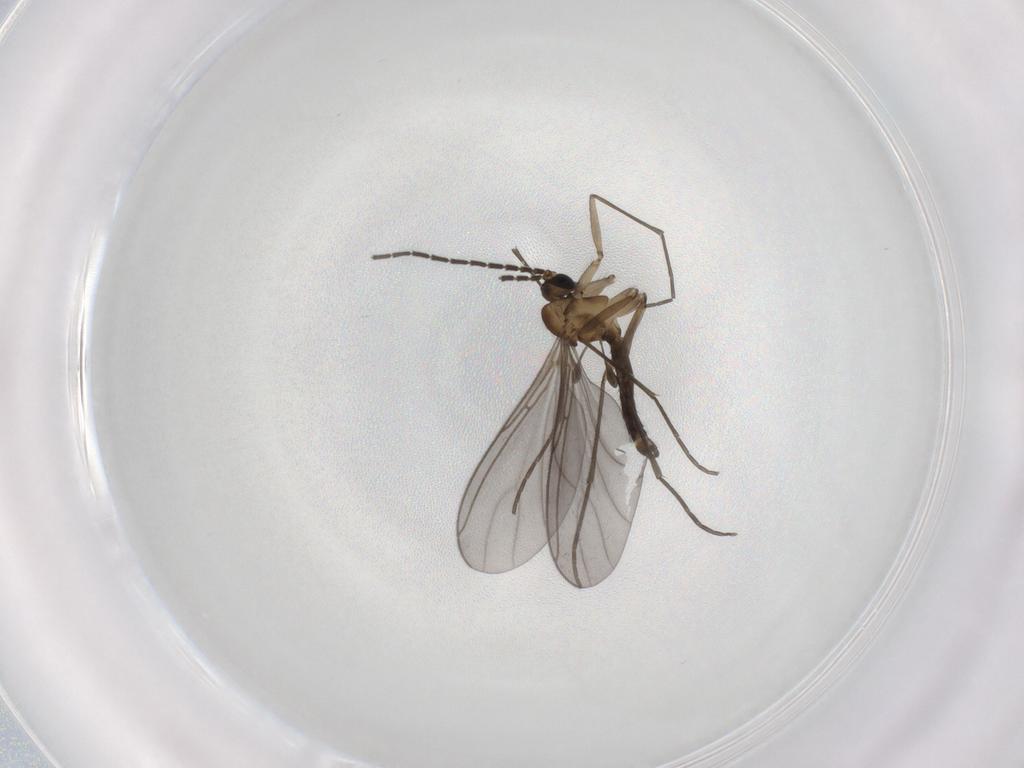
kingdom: Animalia
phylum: Arthropoda
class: Insecta
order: Diptera
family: Sciaridae
